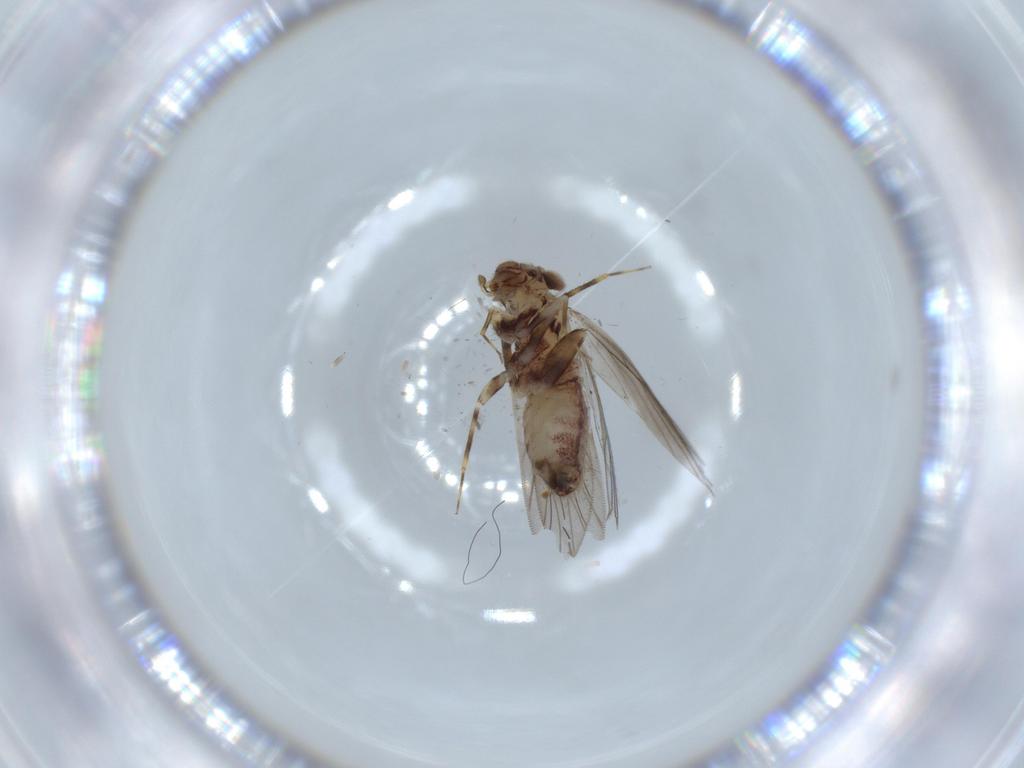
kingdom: Animalia
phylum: Arthropoda
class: Insecta
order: Psocodea
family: Lepidopsocidae
